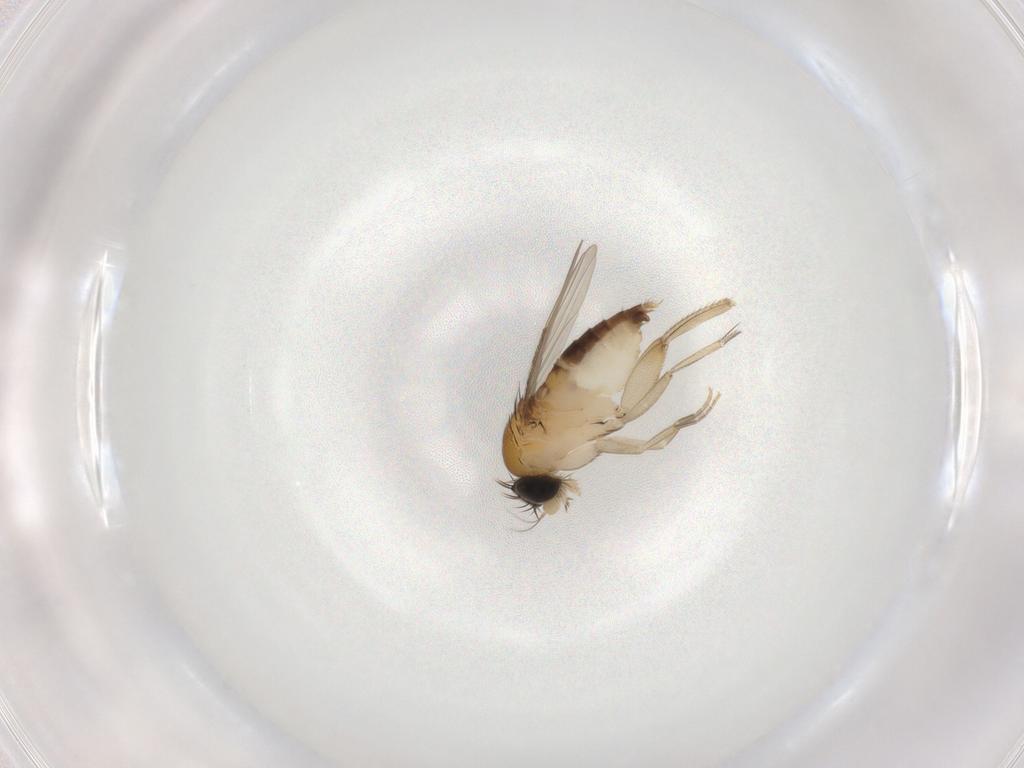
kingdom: Animalia
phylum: Arthropoda
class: Insecta
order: Diptera
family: Phoridae
